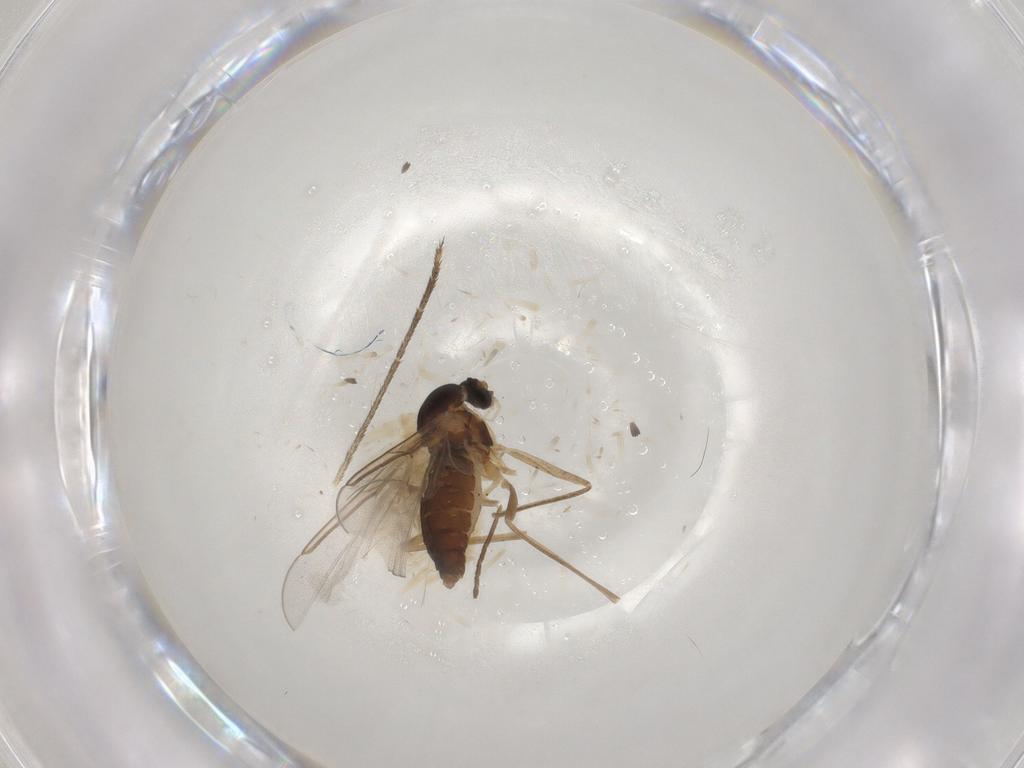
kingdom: Animalia
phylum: Arthropoda
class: Insecta
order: Diptera
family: Cecidomyiidae
